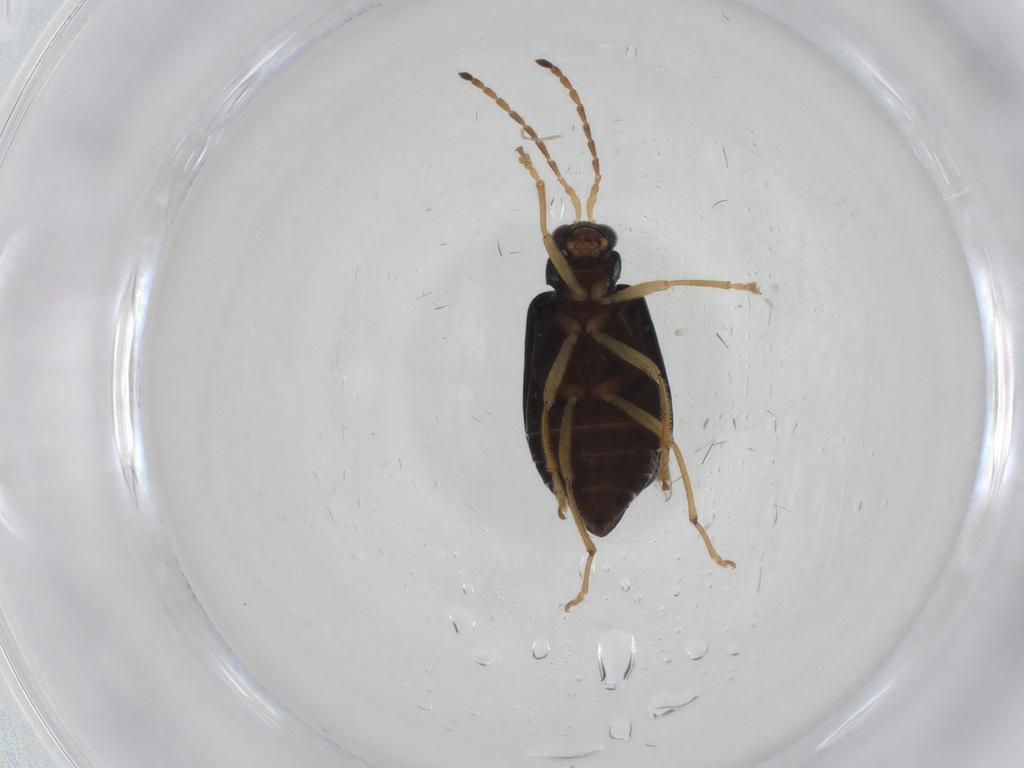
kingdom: Animalia
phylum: Arthropoda
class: Insecta
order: Coleoptera
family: Chrysomelidae
